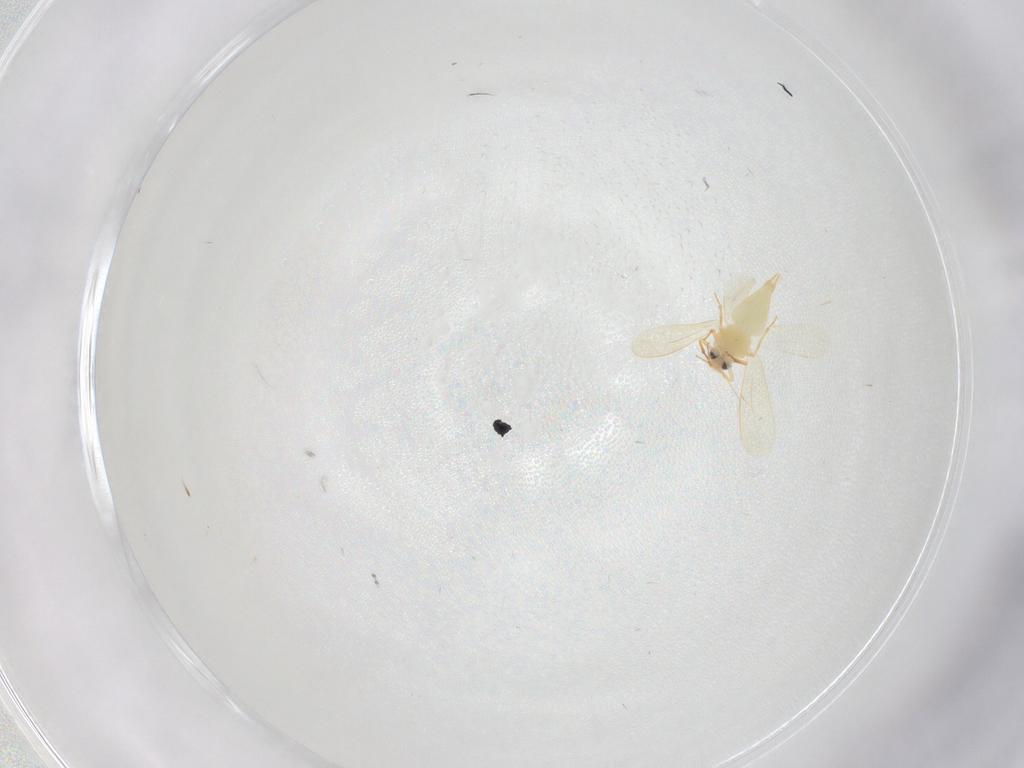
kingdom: Animalia
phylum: Arthropoda
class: Insecta
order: Hemiptera
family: Aleyrodidae
